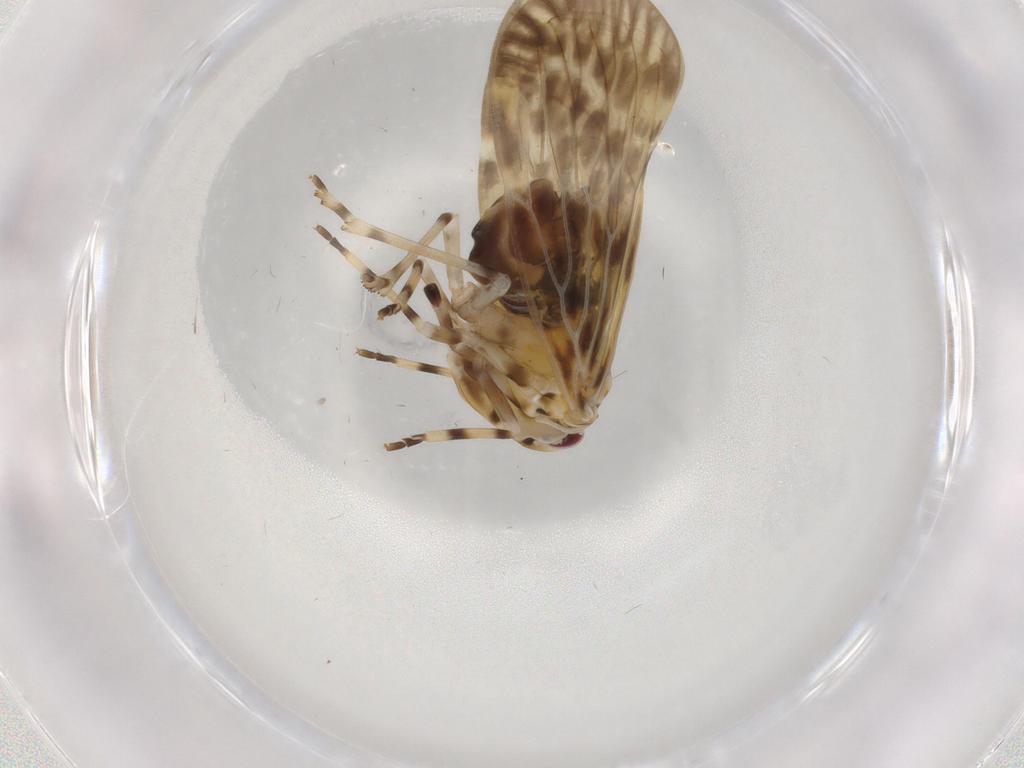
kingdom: Animalia
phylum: Arthropoda
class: Insecta
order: Hemiptera
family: Derbidae
